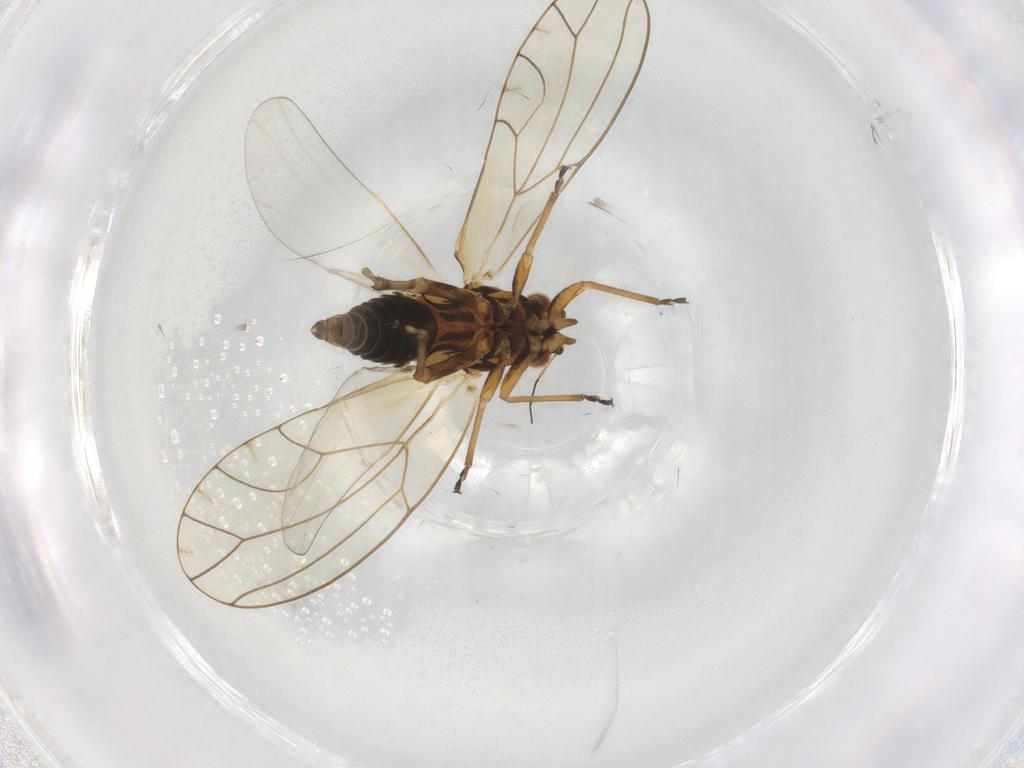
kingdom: Animalia
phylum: Arthropoda
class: Insecta
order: Hemiptera
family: Triozidae
